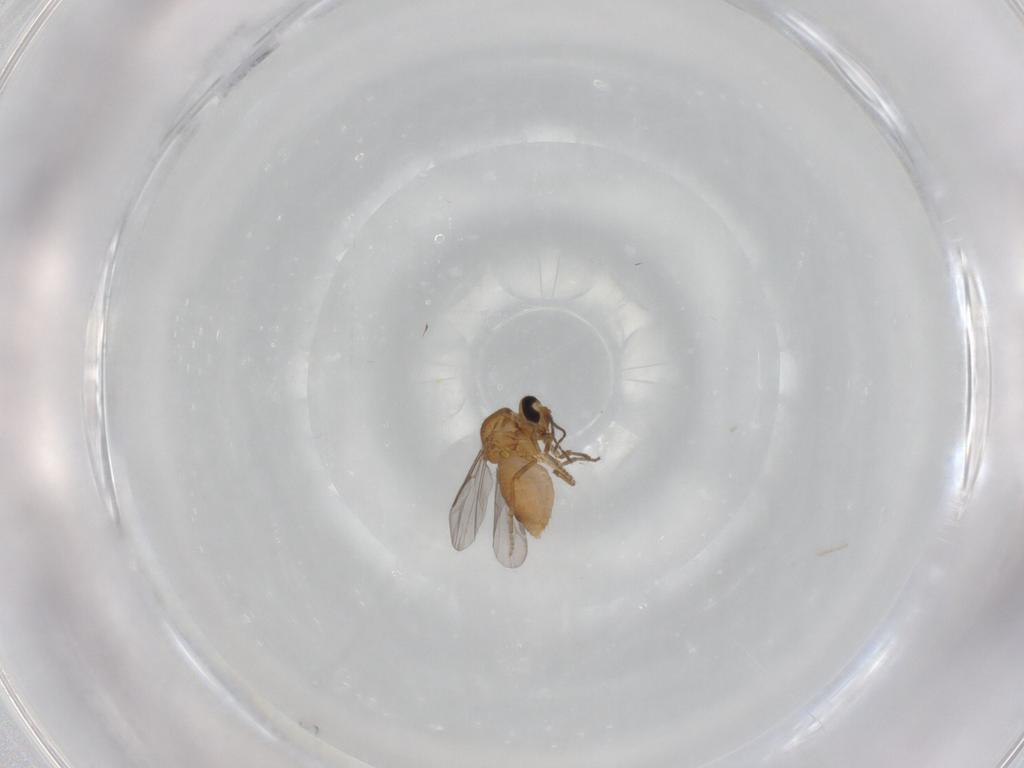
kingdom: Animalia
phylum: Arthropoda
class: Insecta
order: Diptera
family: Ceratopogonidae
